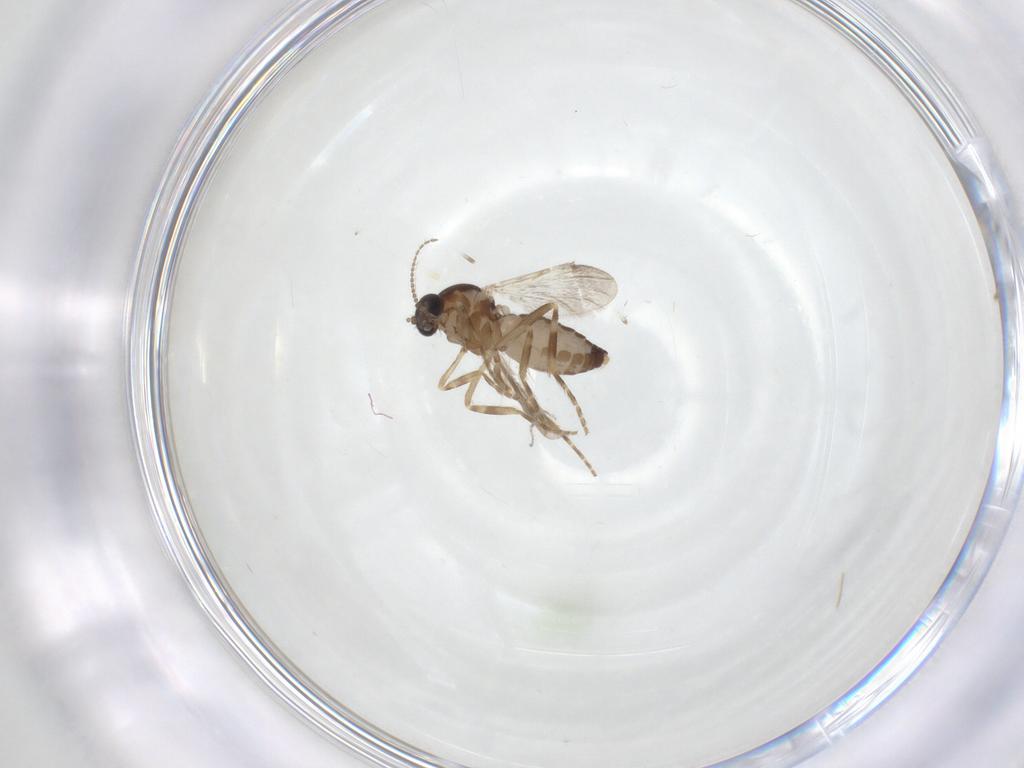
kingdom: Animalia
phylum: Arthropoda
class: Insecta
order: Diptera
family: Ceratopogonidae
